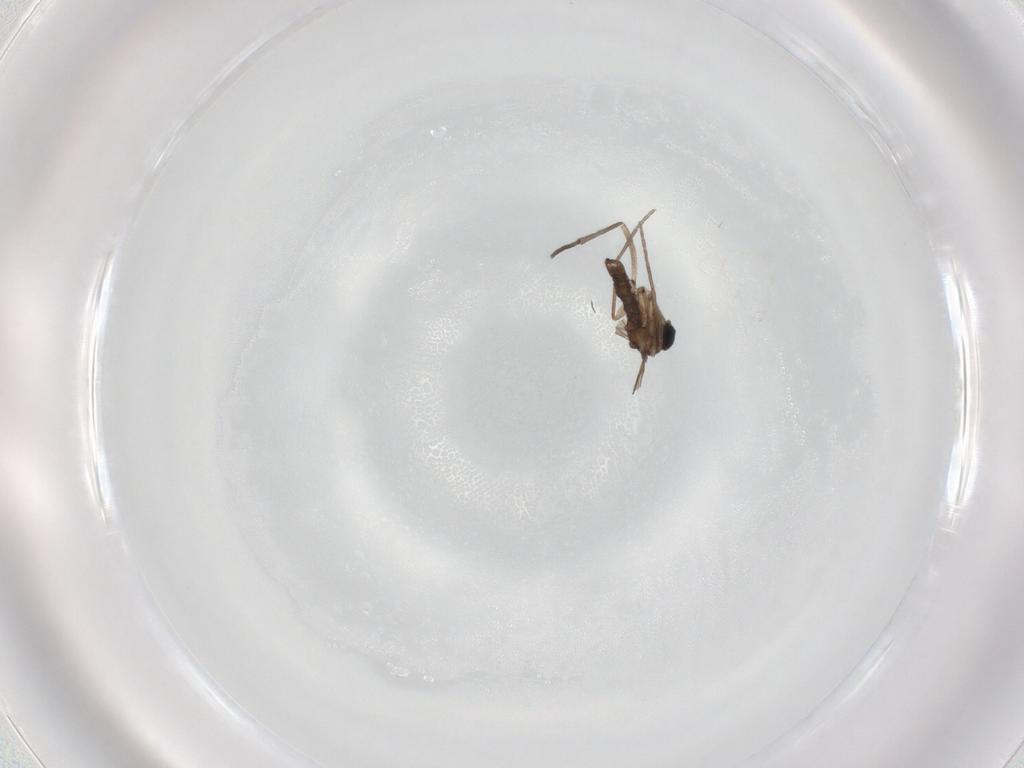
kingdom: Animalia
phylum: Arthropoda
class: Insecta
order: Diptera
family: Sciaridae
